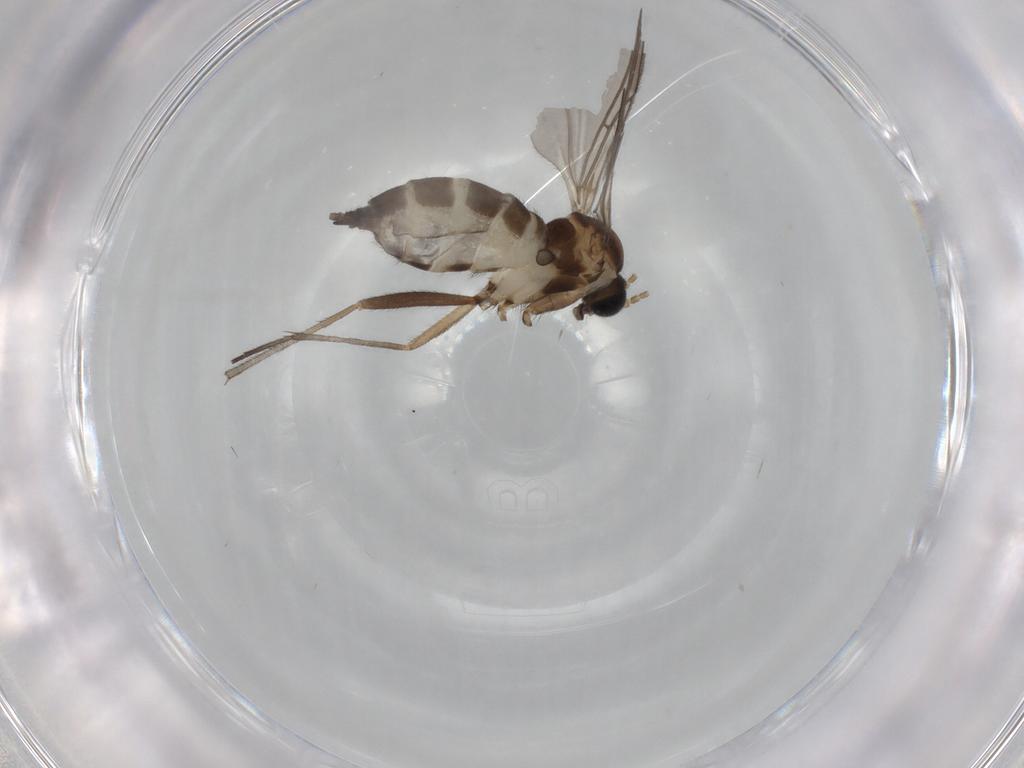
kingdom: Animalia
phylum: Arthropoda
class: Insecta
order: Diptera
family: Sciaridae
